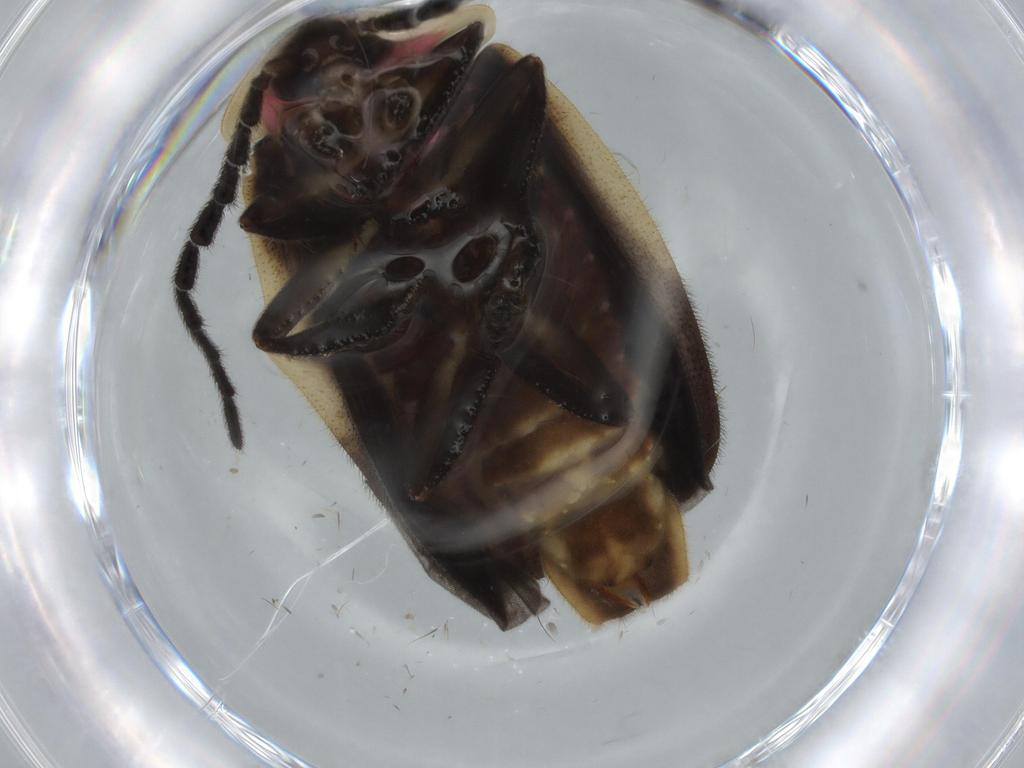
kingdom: Animalia
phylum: Arthropoda
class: Insecta
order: Coleoptera
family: Lampyridae
